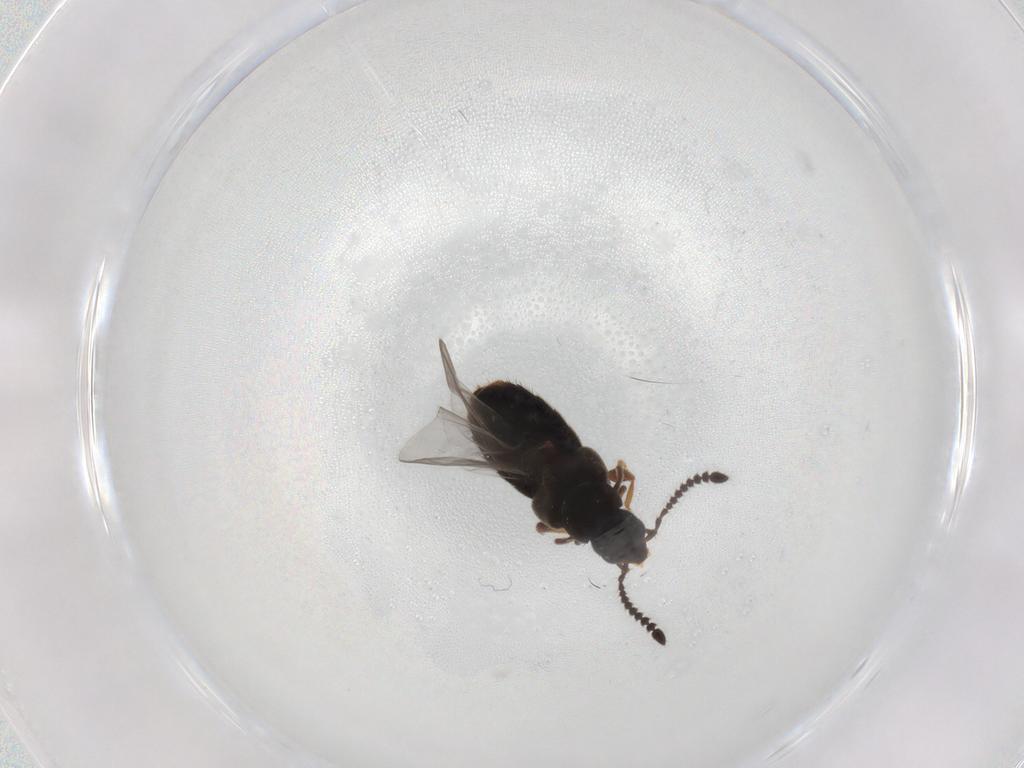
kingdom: Animalia
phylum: Arthropoda
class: Insecta
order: Coleoptera
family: Staphylinidae
